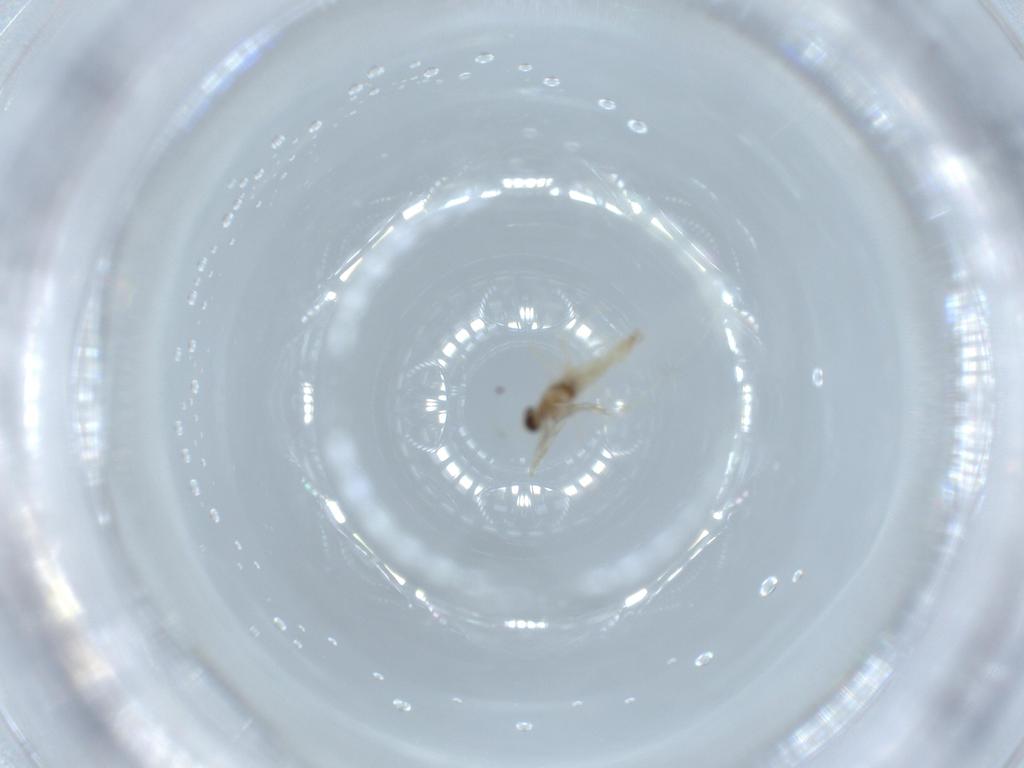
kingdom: Animalia
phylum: Arthropoda
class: Insecta
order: Diptera
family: Cecidomyiidae
